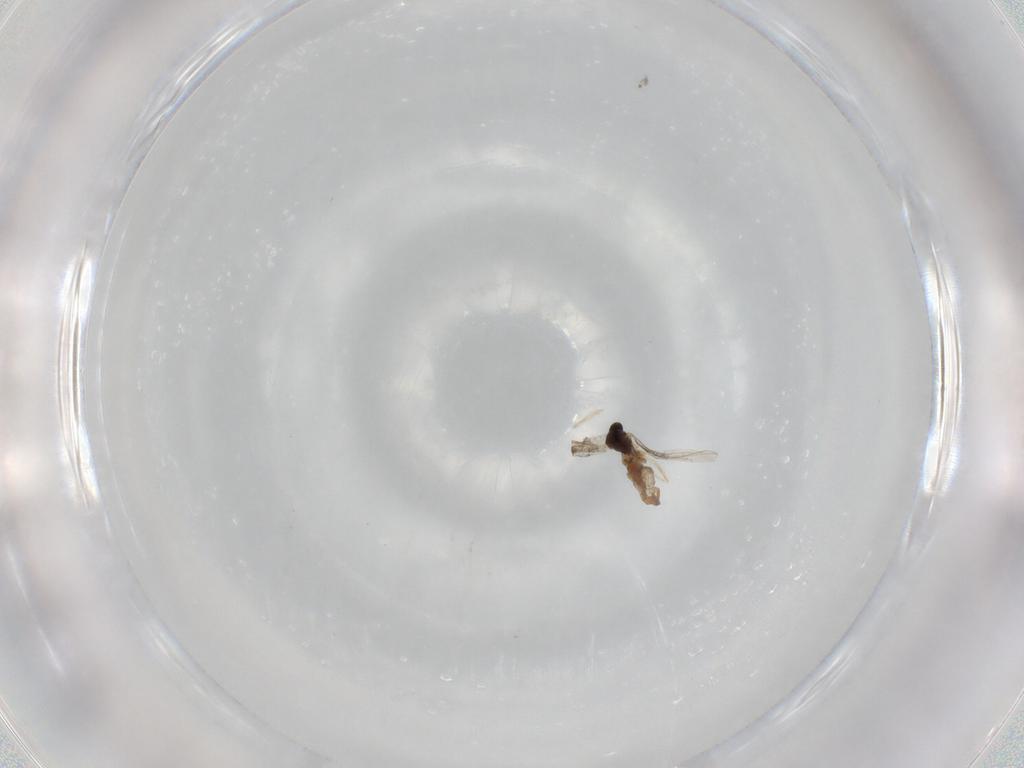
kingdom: Animalia
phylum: Arthropoda
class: Insecta
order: Diptera
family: Cecidomyiidae
